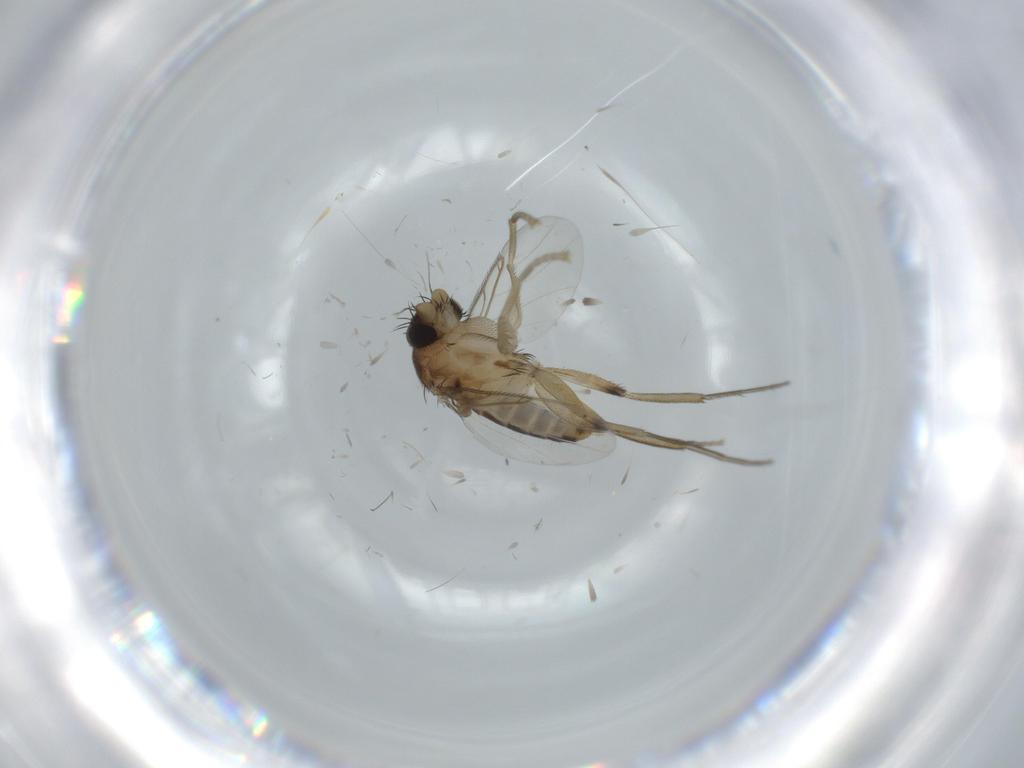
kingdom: Animalia
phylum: Arthropoda
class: Insecta
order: Diptera
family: Phoridae
